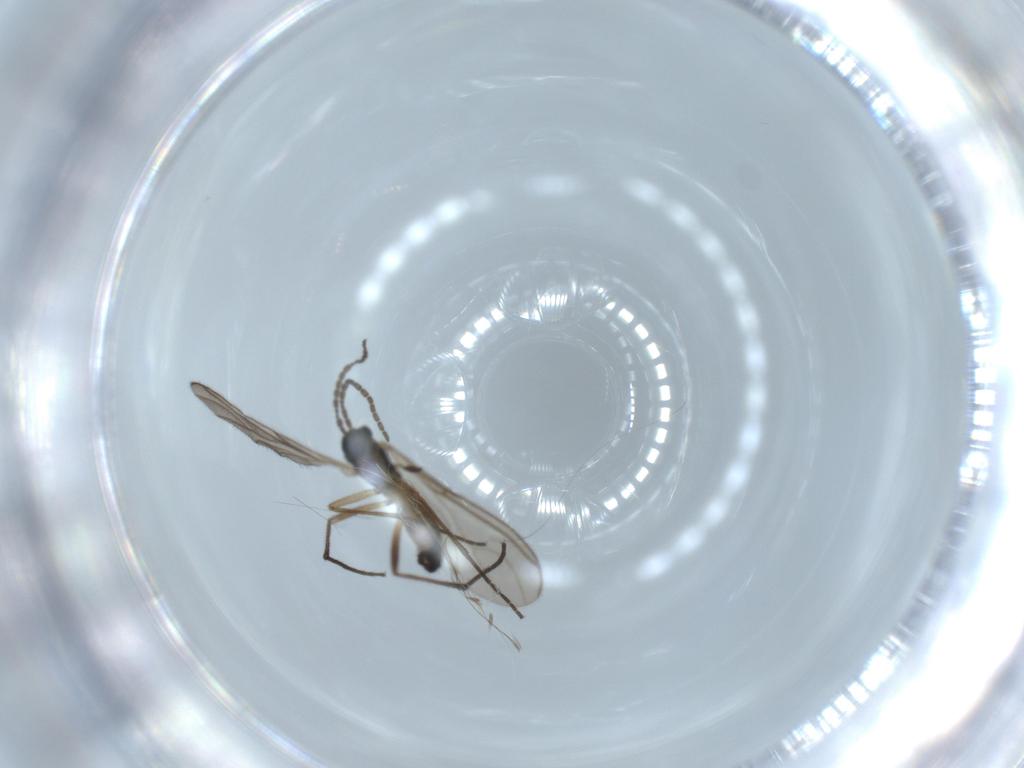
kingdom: Animalia
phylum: Arthropoda
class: Insecta
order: Diptera
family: Sciaridae
